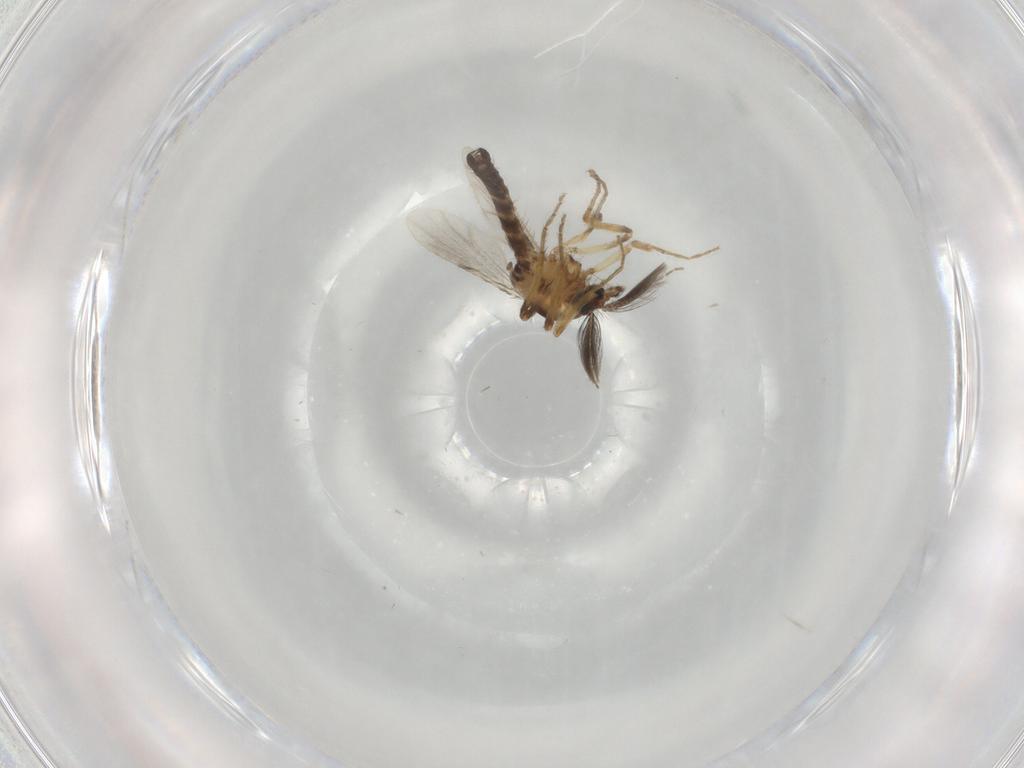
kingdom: Animalia
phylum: Arthropoda
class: Insecta
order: Diptera
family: Ceratopogonidae
